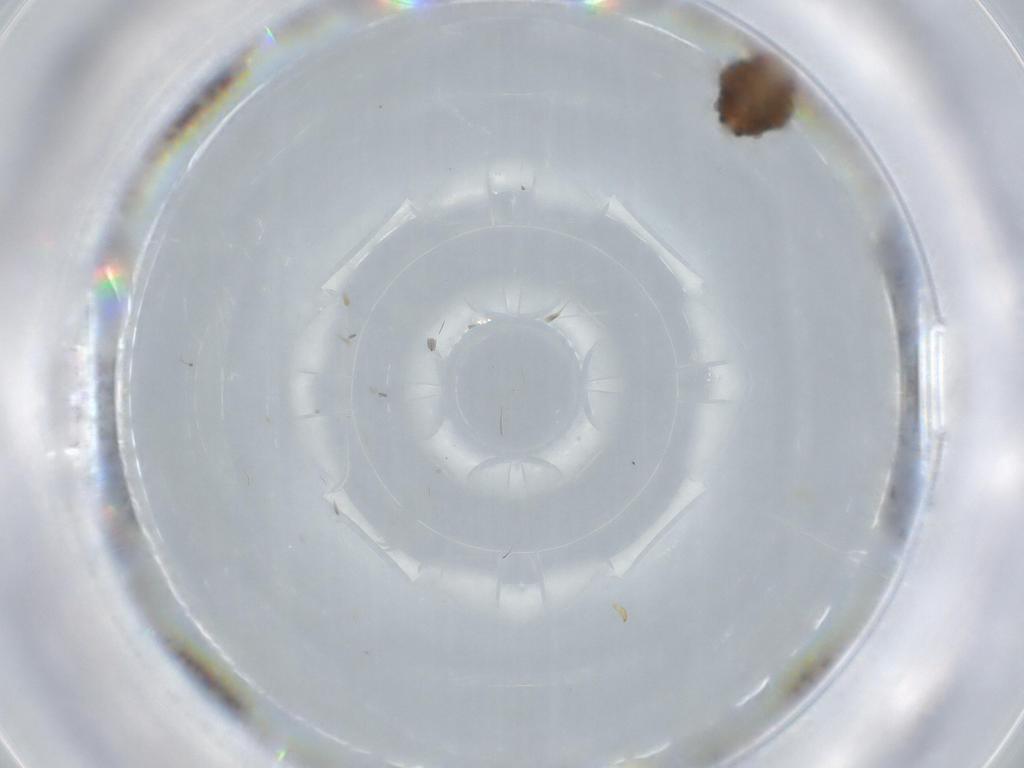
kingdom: Animalia
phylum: Arthropoda
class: Insecta
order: Hemiptera
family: Issidae
